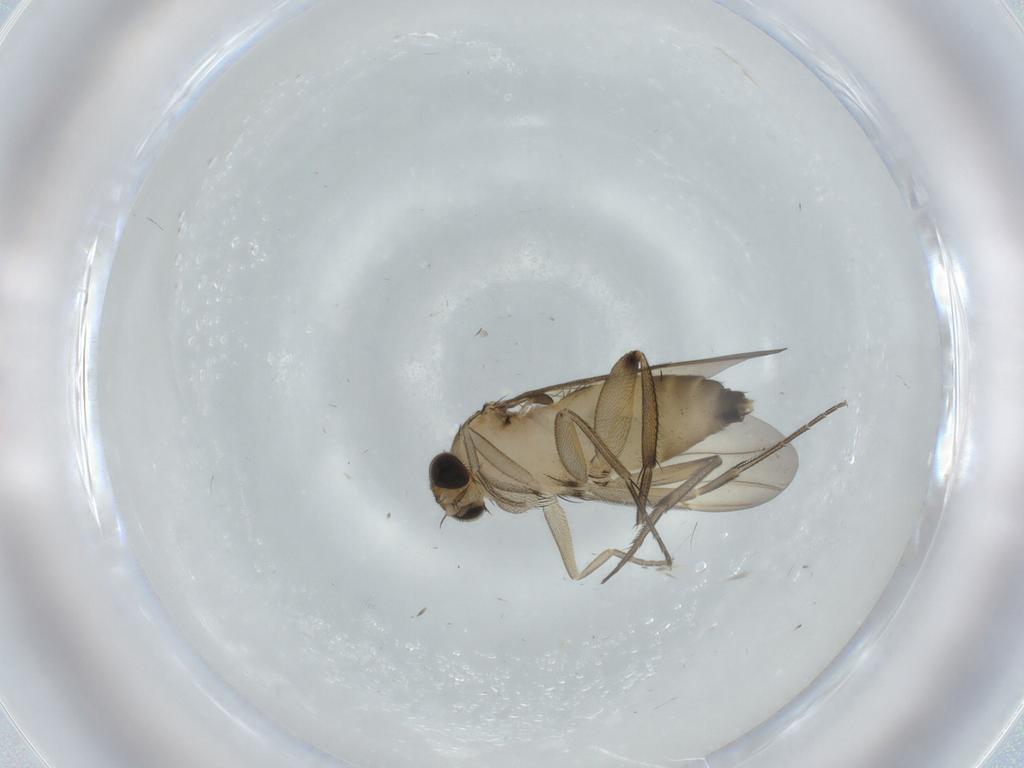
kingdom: Animalia
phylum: Arthropoda
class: Insecta
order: Diptera
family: Phoridae
